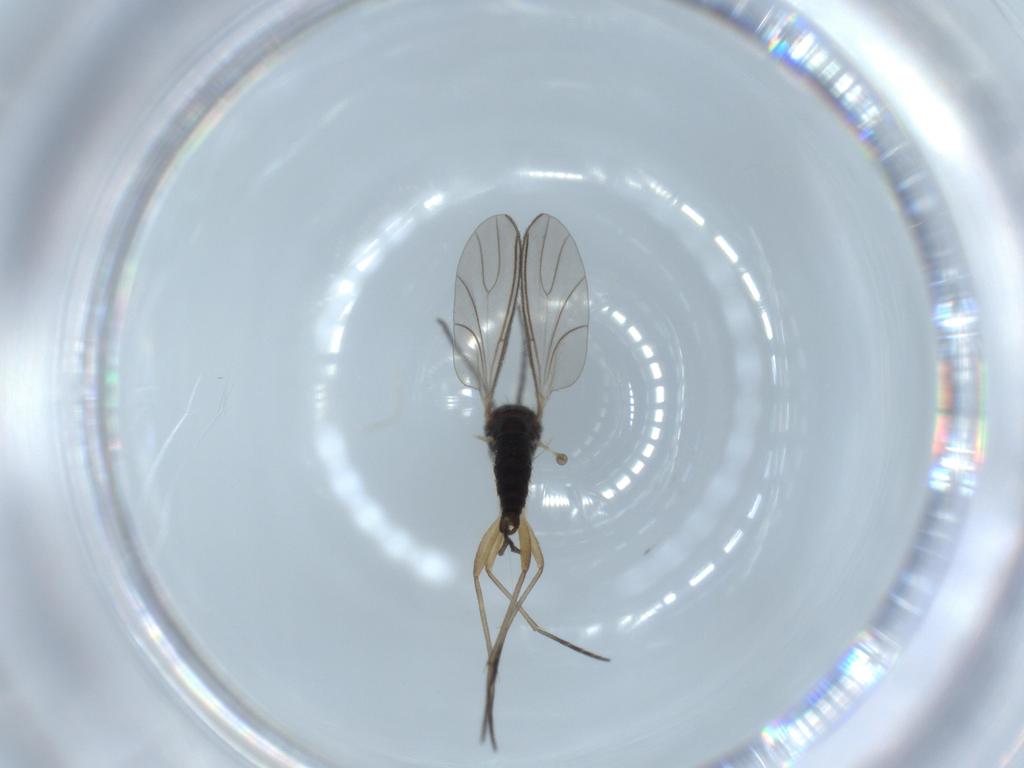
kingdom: Animalia
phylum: Arthropoda
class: Insecta
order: Diptera
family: Sciaridae
